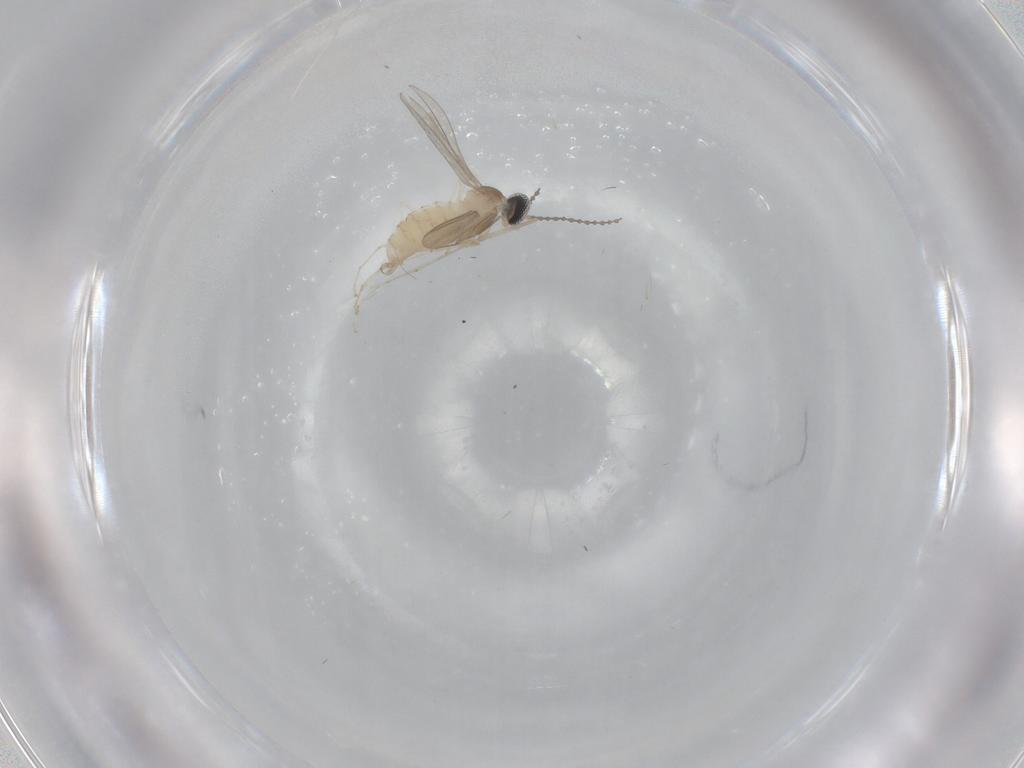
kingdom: Animalia
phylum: Arthropoda
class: Insecta
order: Diptera
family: Cecidomyiidae
